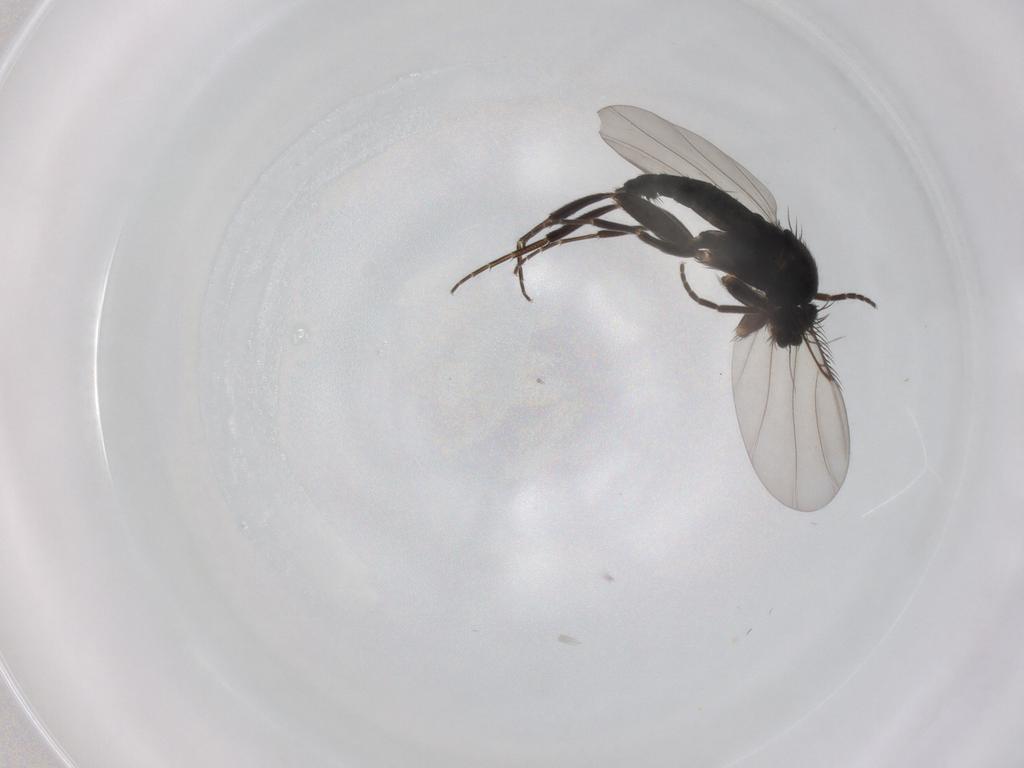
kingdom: Animalia
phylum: Arthropoda
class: Insecta
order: Diptera
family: Phoridae
